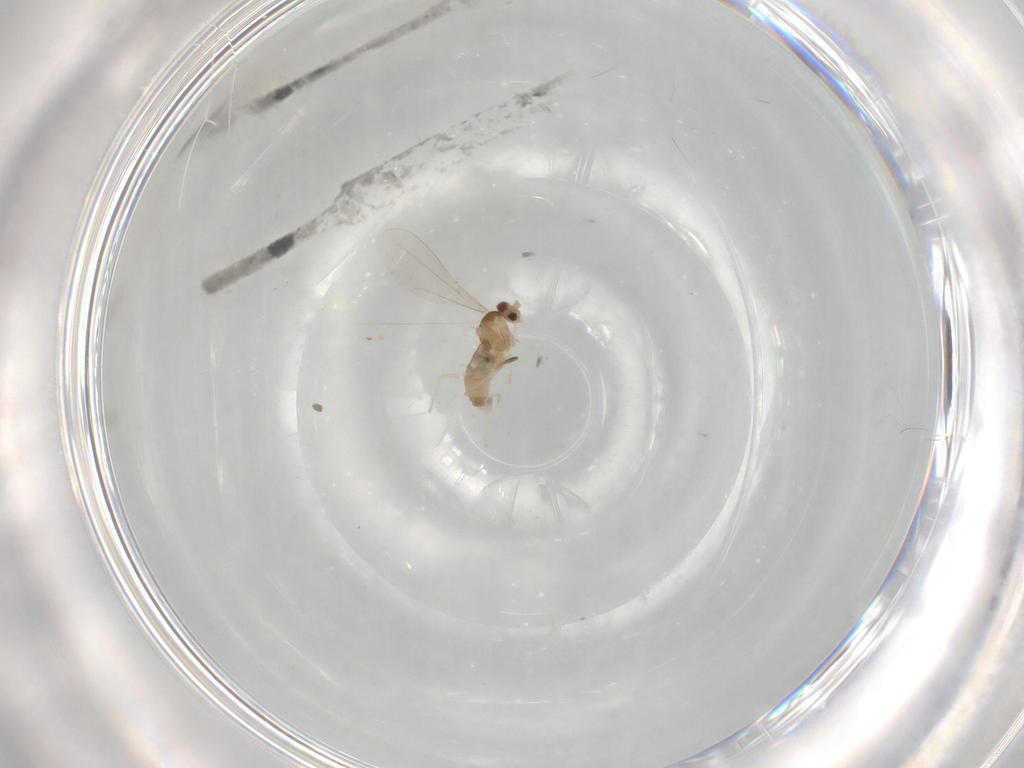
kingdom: Animalia
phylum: Arthropoda
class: Insecta
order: Diptera
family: Cecidomyiidae
